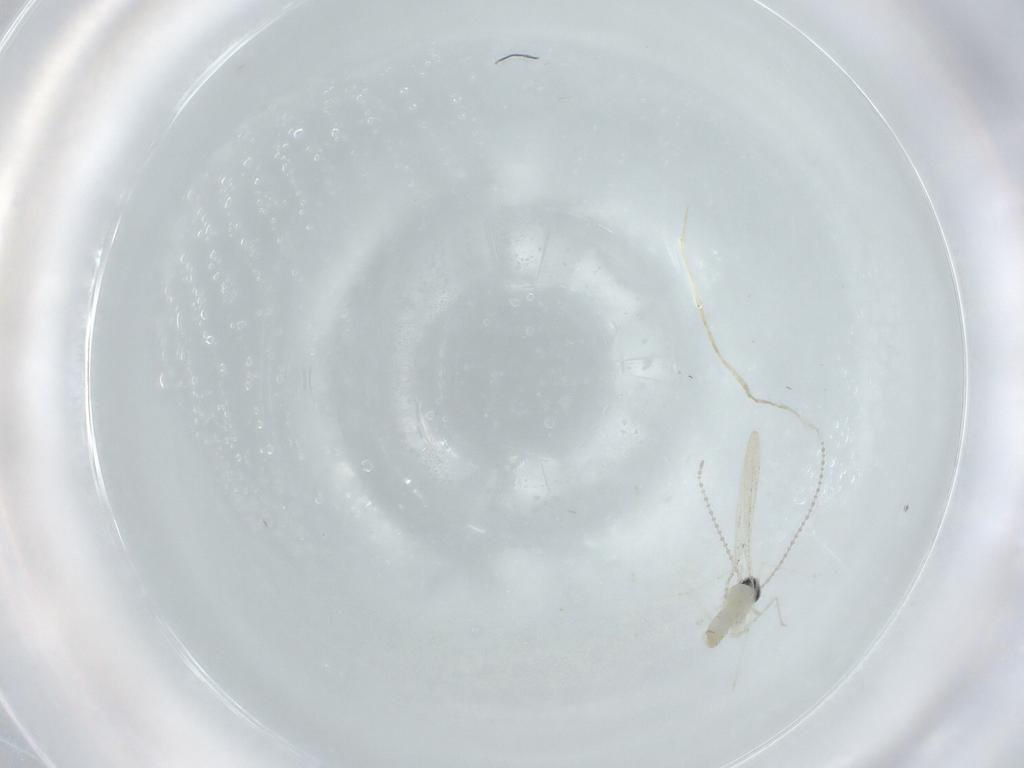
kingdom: Animalia
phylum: Arthropoda
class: Insecta
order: Diptera
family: Cecidomyiidae
